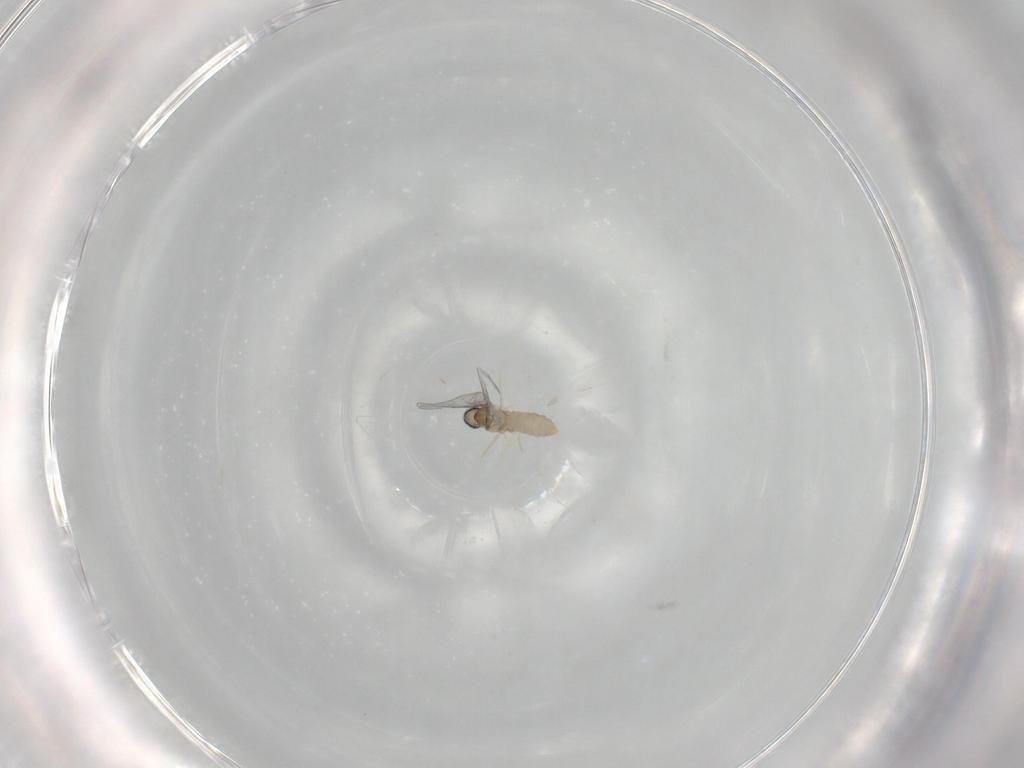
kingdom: Animalia
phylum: Arthropoda
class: Insecta
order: Diptera
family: Cecidomyiidae
